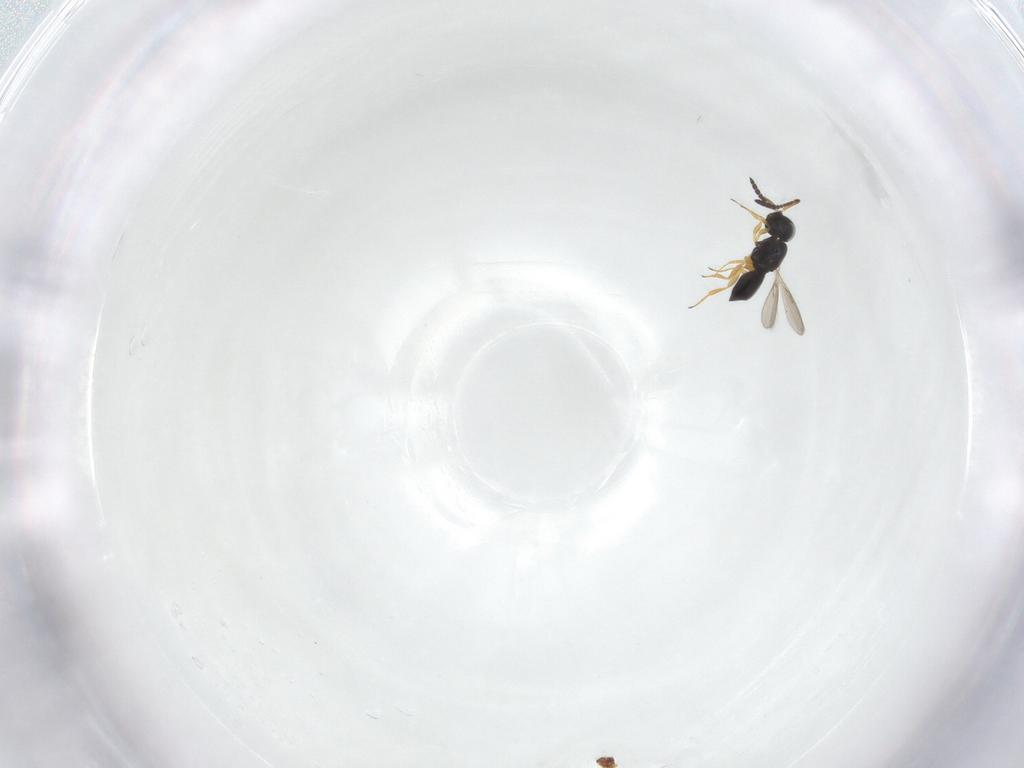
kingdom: Animalia
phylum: Arthropoda
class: Insecta
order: Hymenoptera
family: Scelionidae
